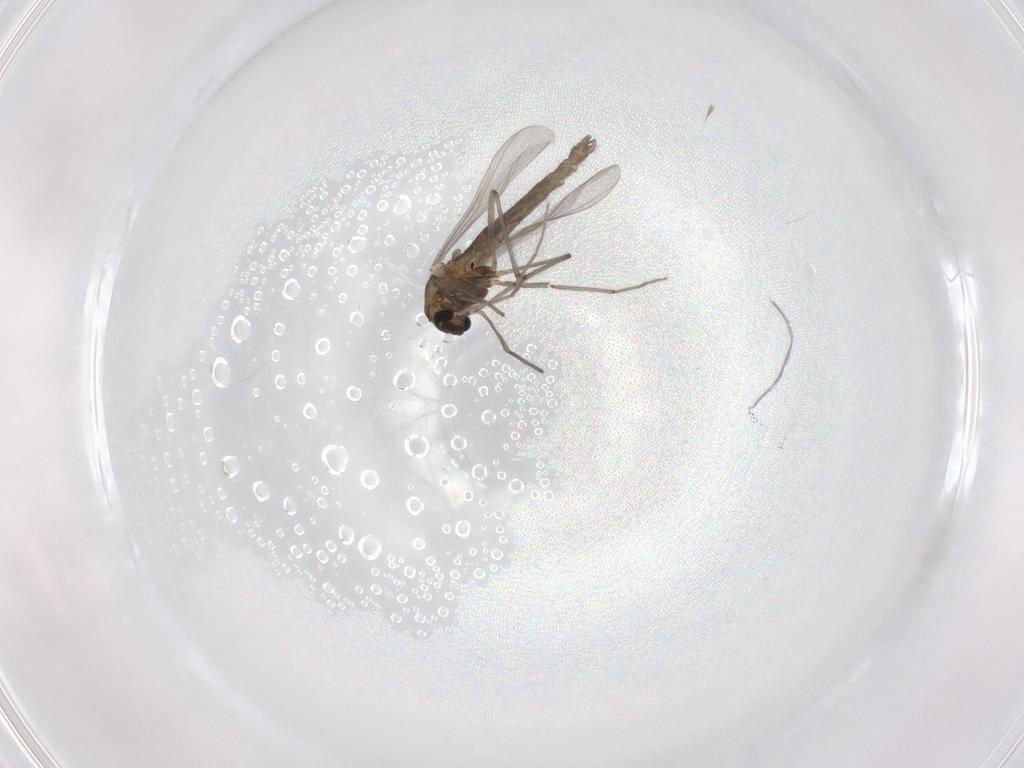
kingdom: Animalia
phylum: Arthropoda
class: Insecta
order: Diptera
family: Chironomidae
